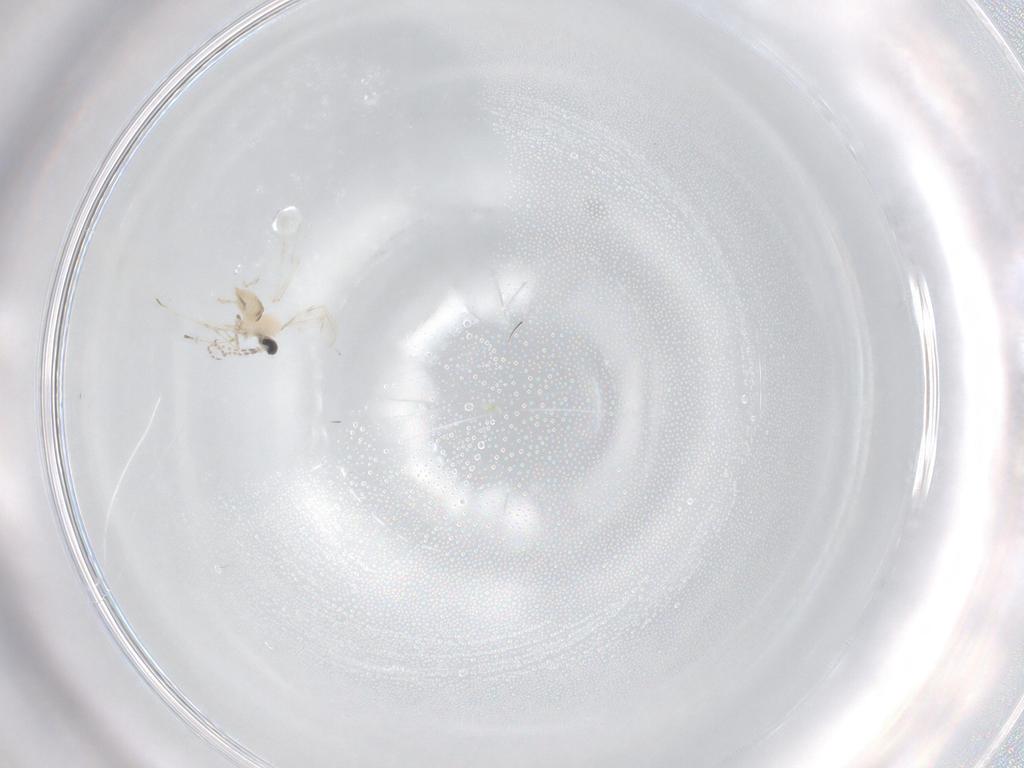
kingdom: Animalia
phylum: Arthropoda
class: Insecta
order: Diptera
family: Cecidomyiidae
